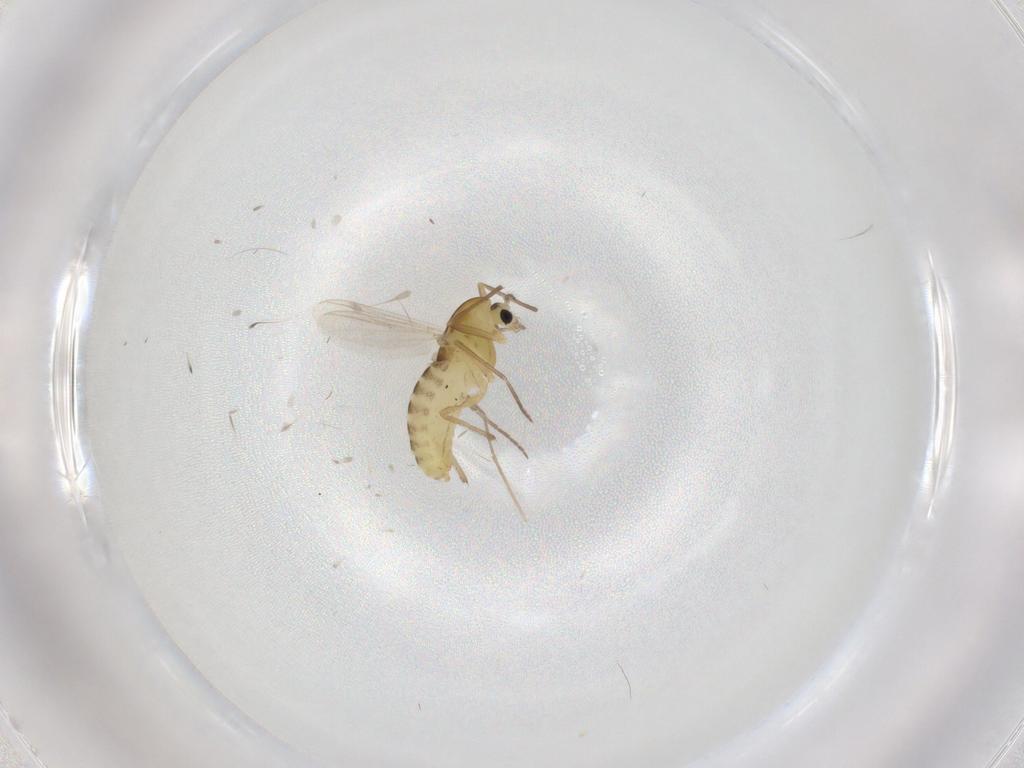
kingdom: Animalia
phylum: Arthropoda
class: Insecta
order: Diptera
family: Chironomidae
